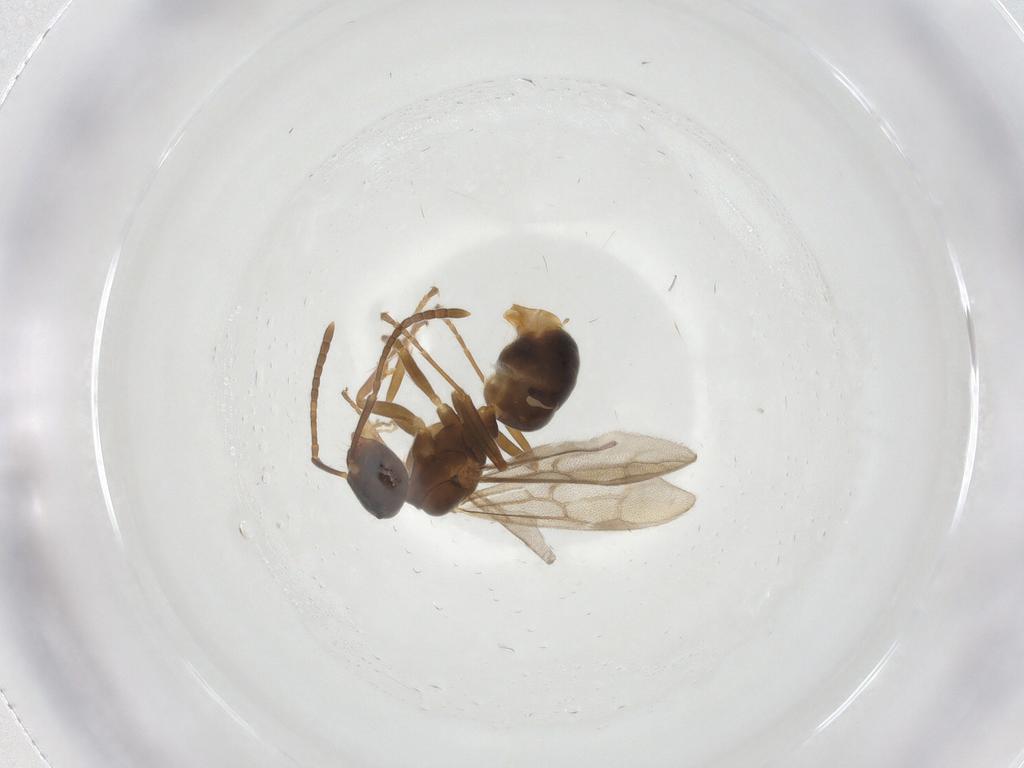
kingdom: Animalia
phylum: Arthropoda
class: Insecta
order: Hymenoptera
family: Formicidae
